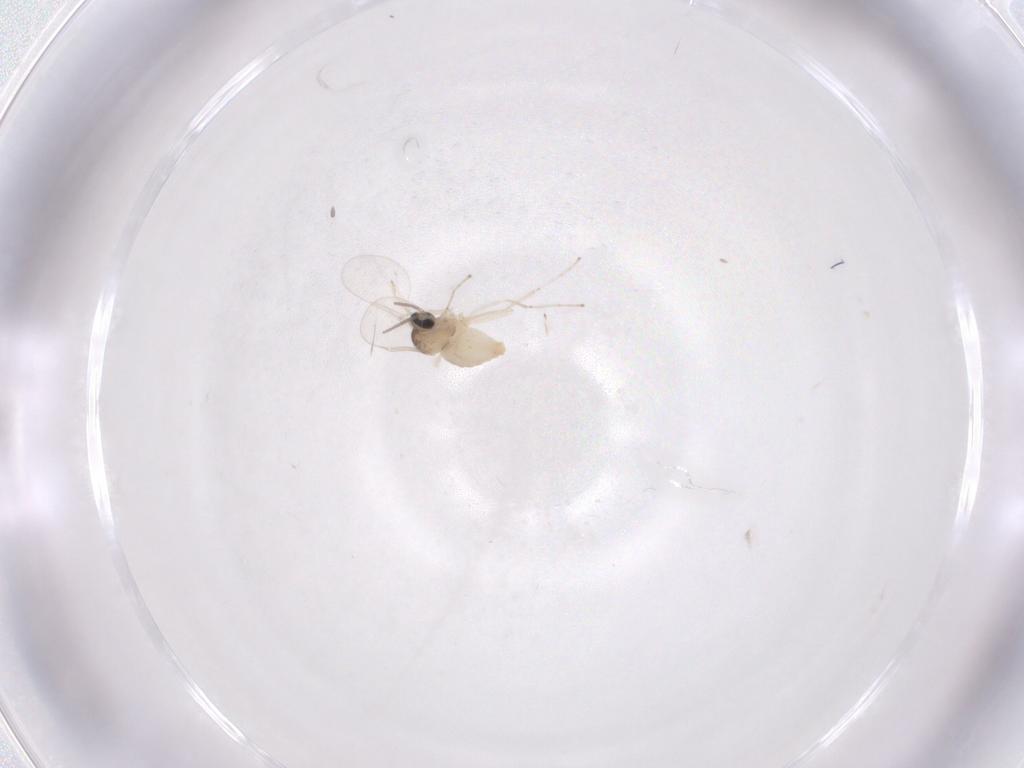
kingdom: Animalia
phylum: Arthropoda
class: Insecta
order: Diptera
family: Cecidomyiidae
